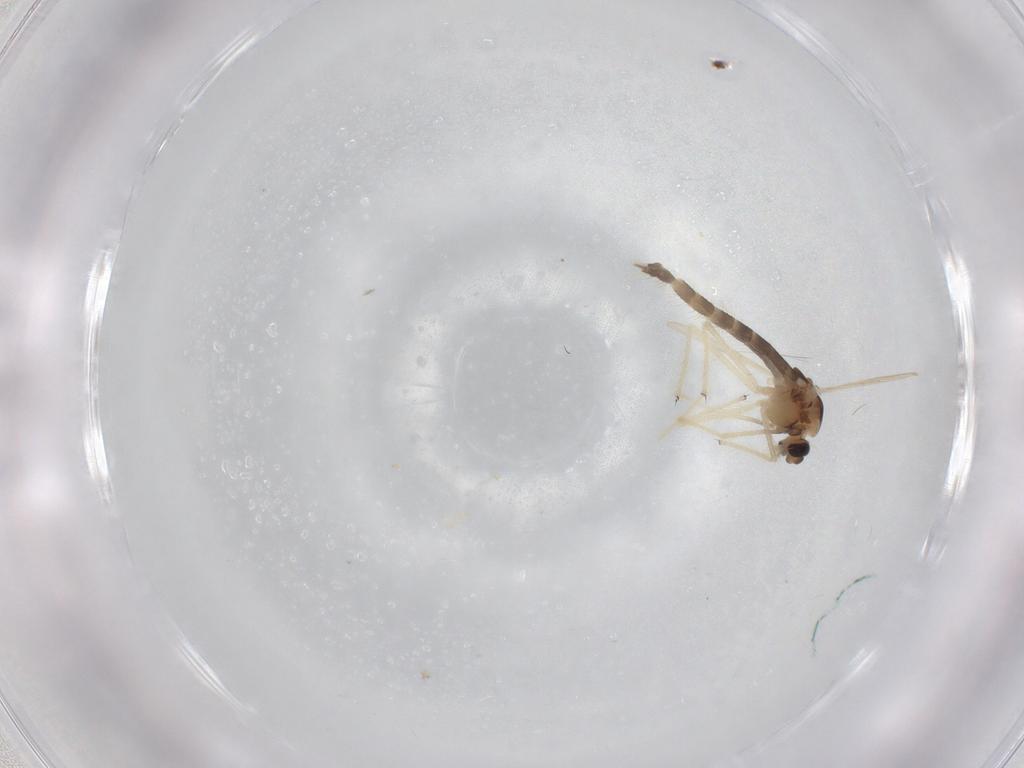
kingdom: Animalia
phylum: Arthropoda
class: Insecta
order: Diptera
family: Chironomidae
